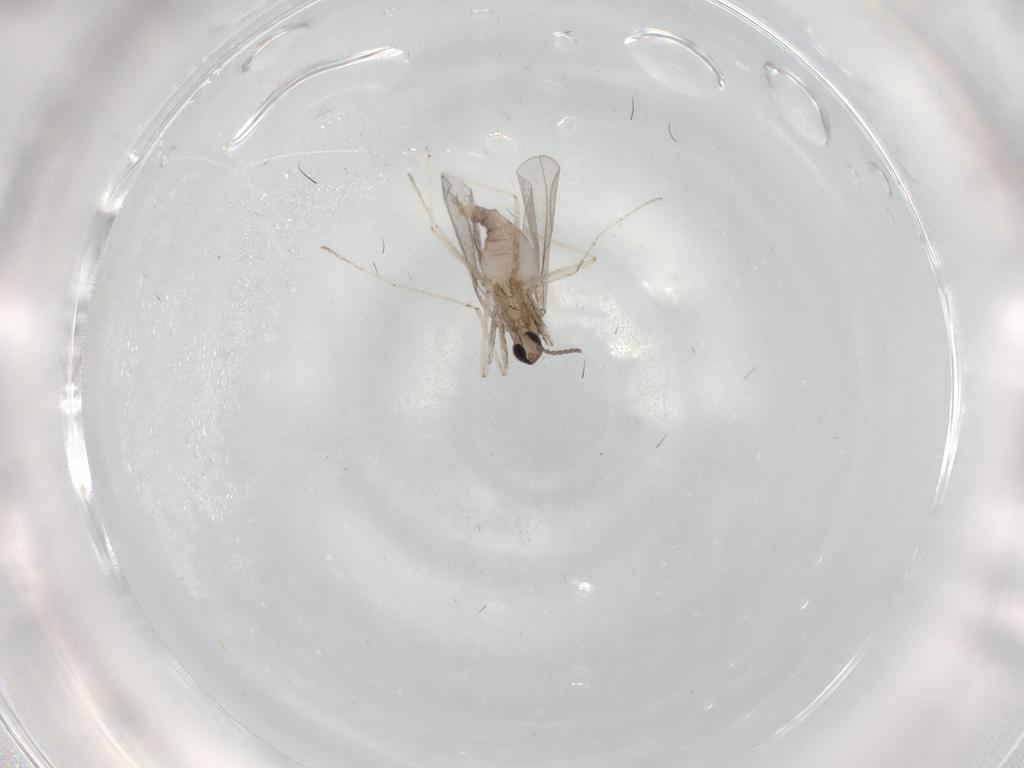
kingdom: Animalia
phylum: Arthropoda
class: Insecta
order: Diptera
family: Cecidomyiidae
